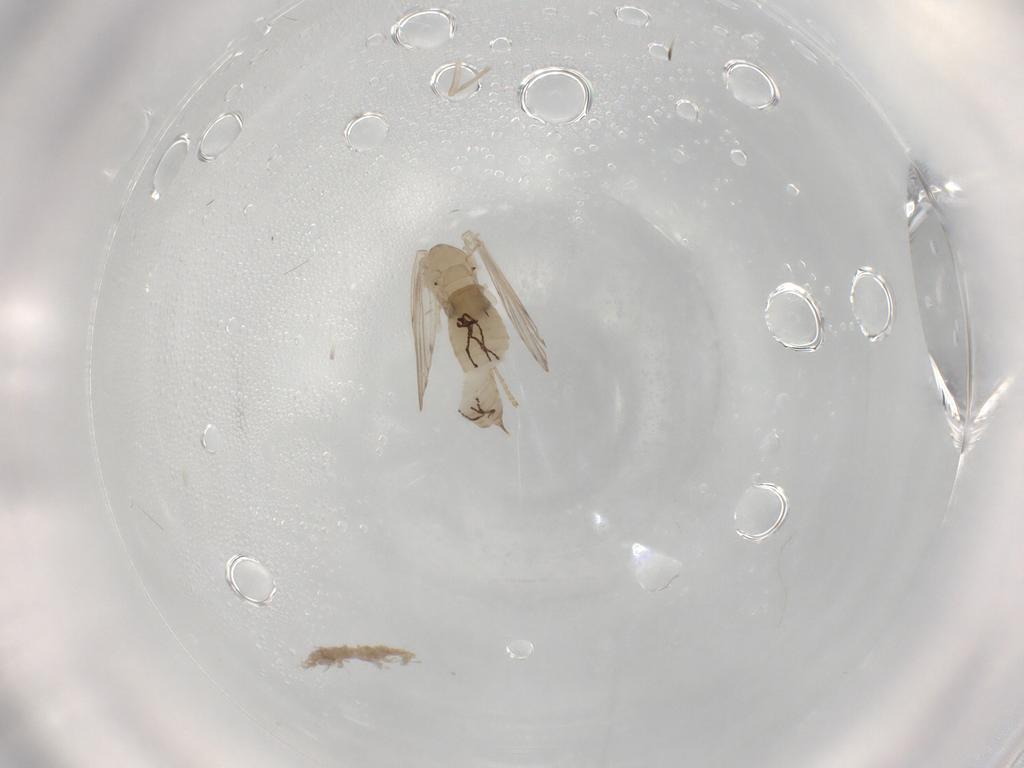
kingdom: Animalia
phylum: Arthropoda
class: Insecta
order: Diptera
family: Psychodidae
